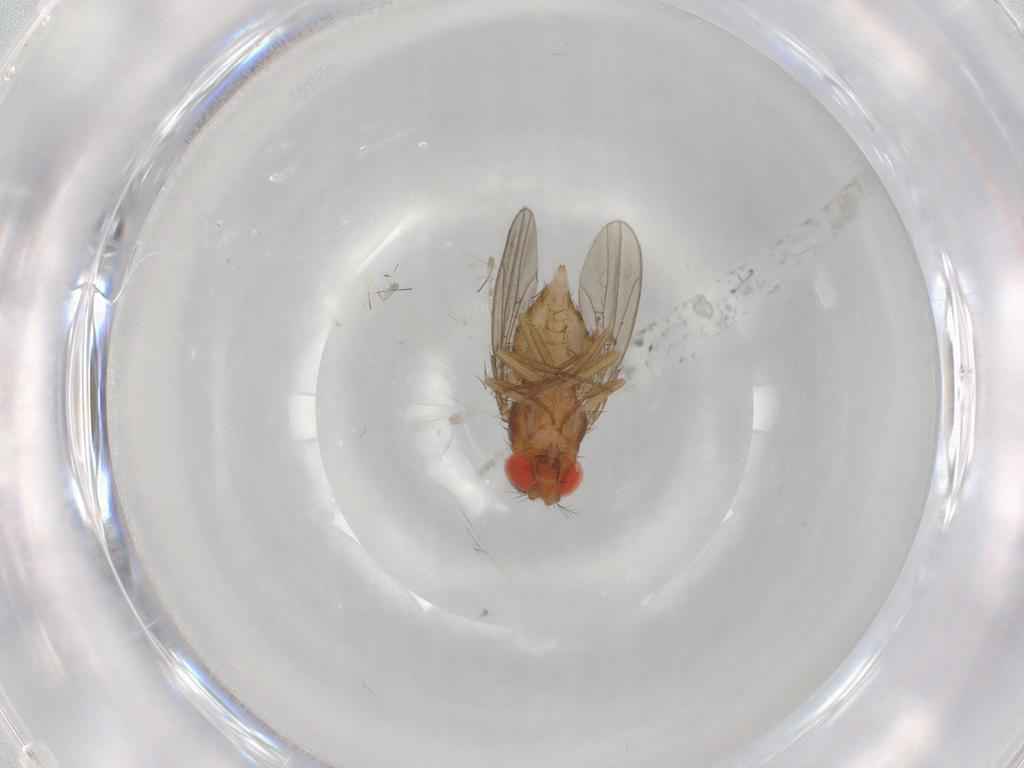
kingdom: Animalia
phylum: Arthropoda
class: Insecta
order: Diptera
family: Drosophilidae
